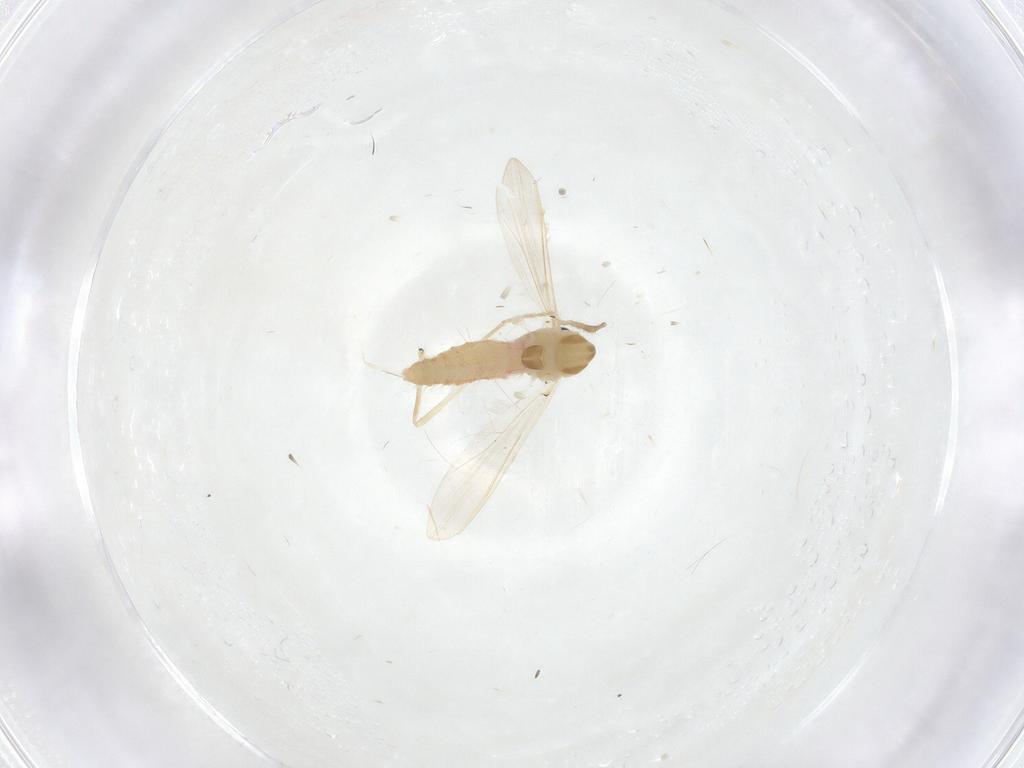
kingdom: Animalia
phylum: Arthropoda
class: Insecta
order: Diptera
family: Chironomidae
